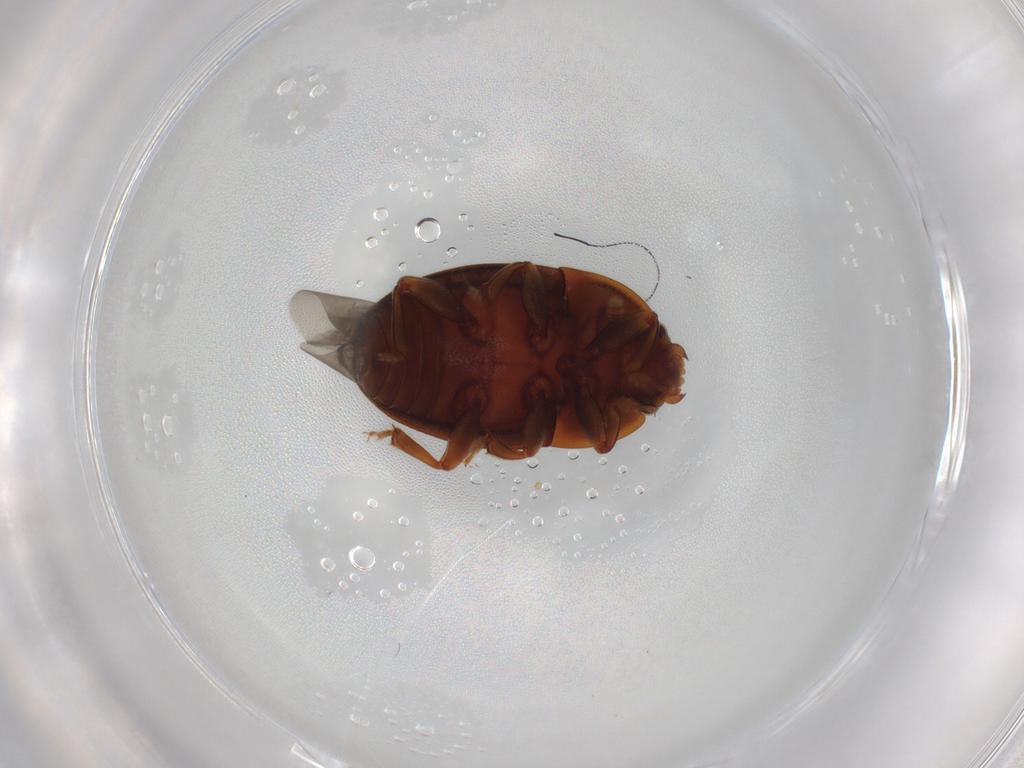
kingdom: Animalia
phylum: Arthropoda
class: Insecta
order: Coleoptera
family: Nitidulidae
